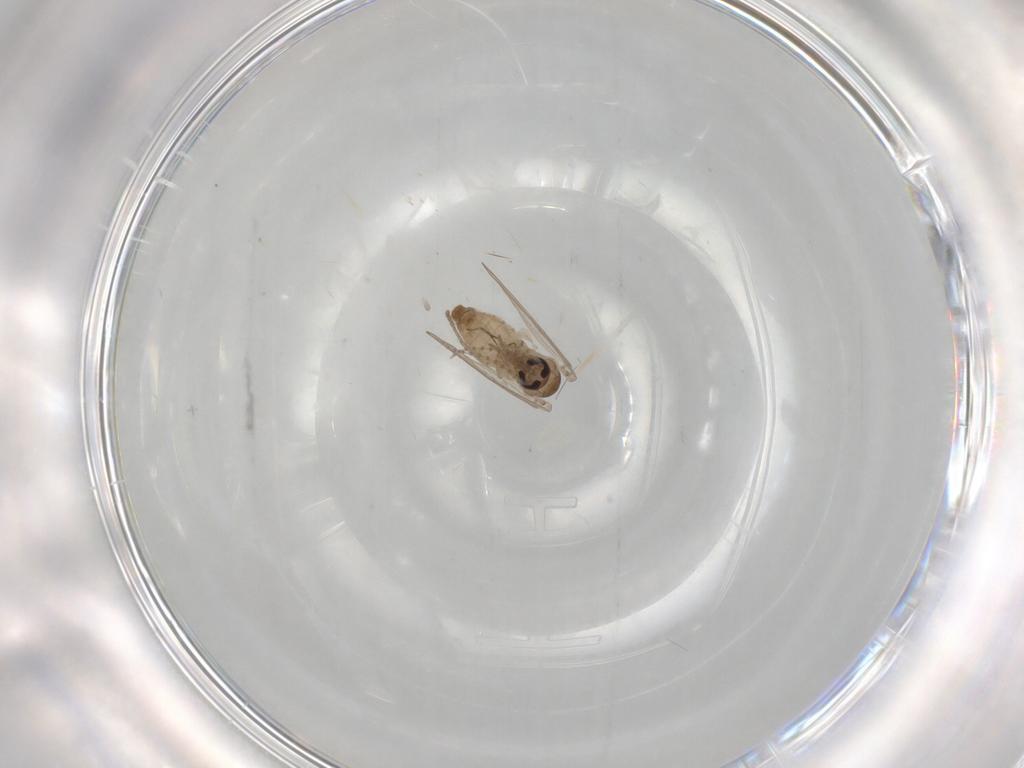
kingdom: Animalia
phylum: Arthropoda
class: Insecta
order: Diptera
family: Psychodidae
